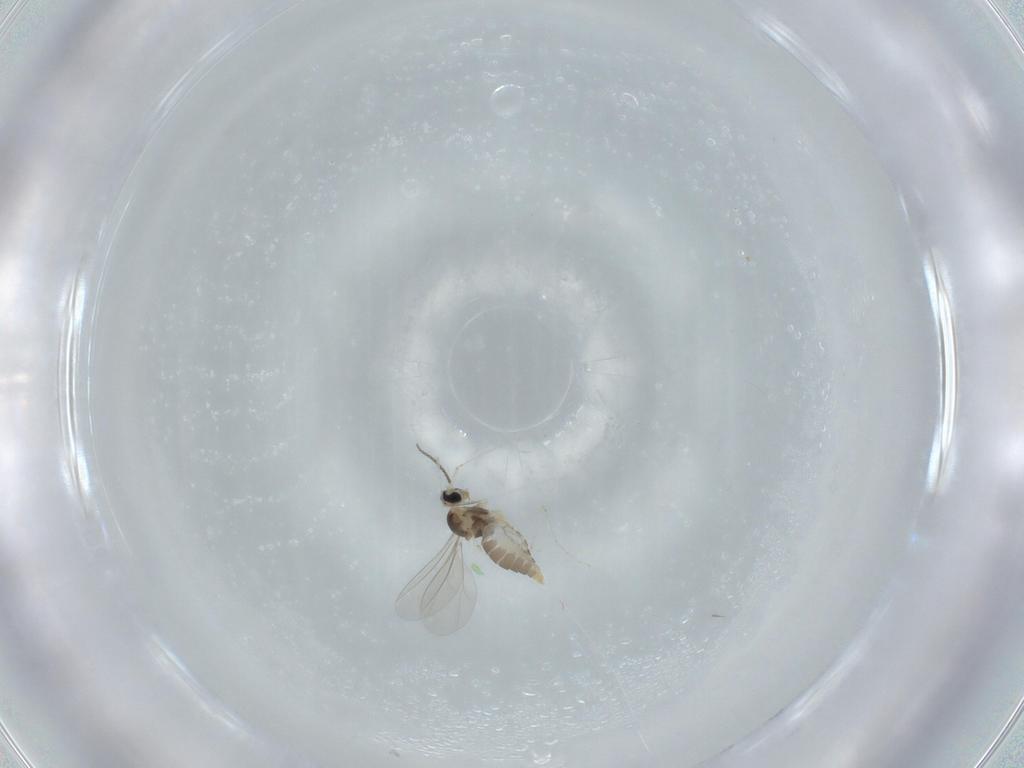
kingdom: Animalia
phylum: Arthropoda
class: Insecta
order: Diptera
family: Cecidomyiidae
